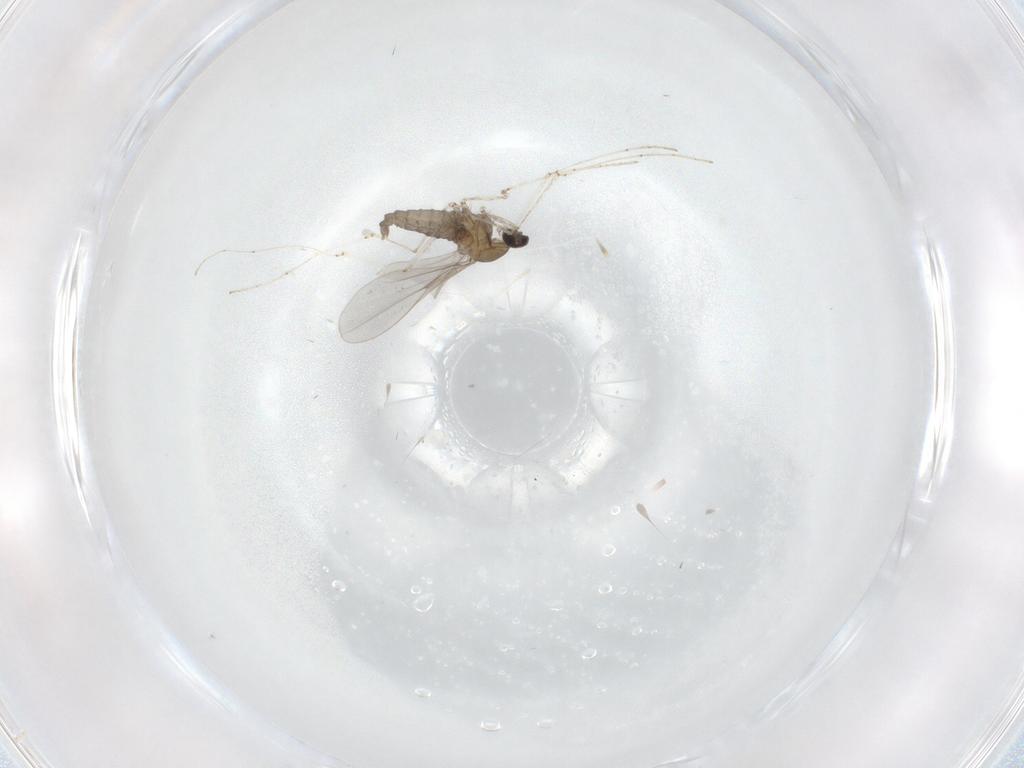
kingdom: Animalia
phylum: Arthropoda
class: Insecta
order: Diptera
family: Cecidomyiidae
